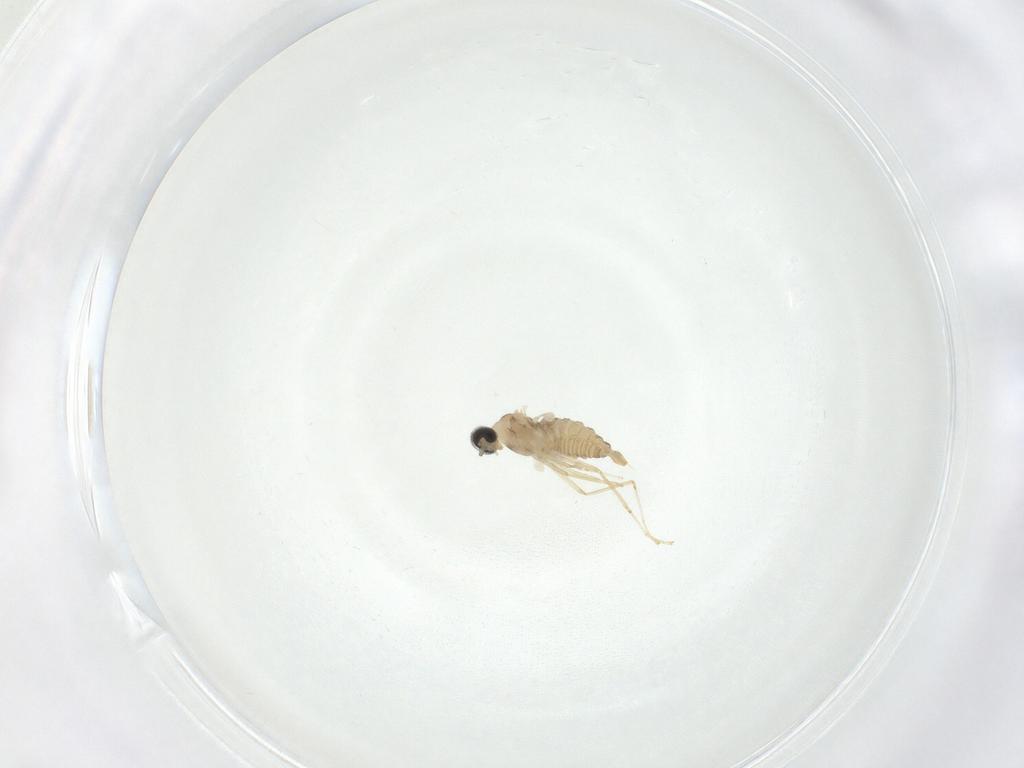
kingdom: Animalia
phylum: Arthropoda
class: Insecta
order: Diptera
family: Cecidomyiidae
